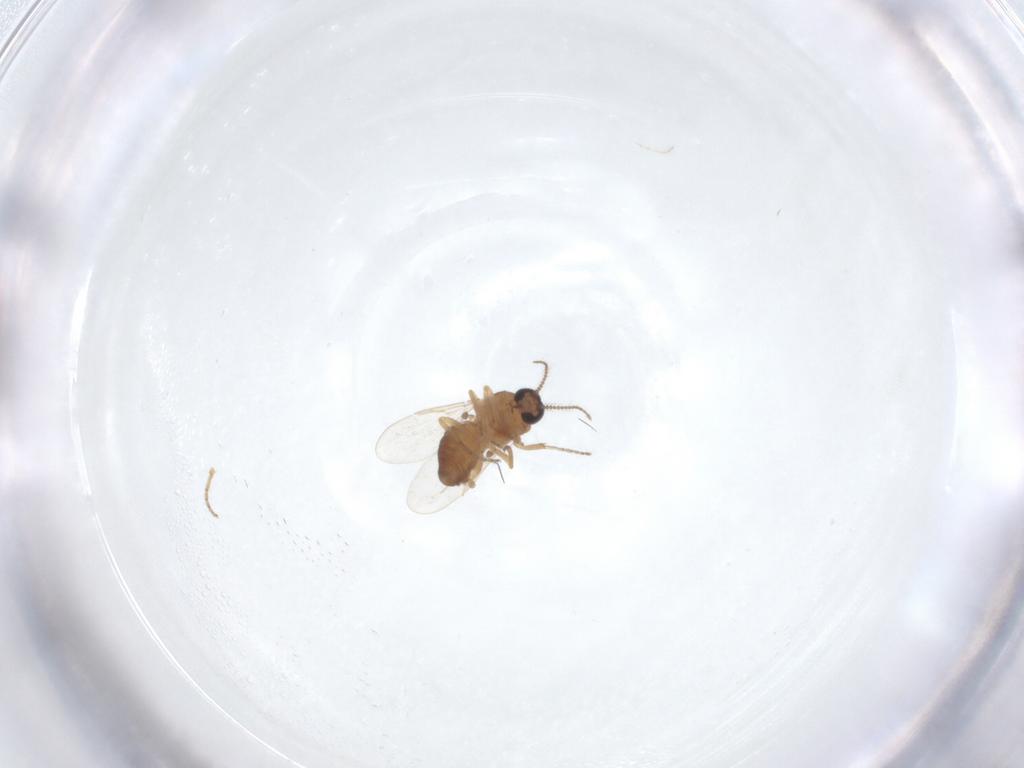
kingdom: Animalia
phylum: Arthropoda
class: Insecta
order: Diptera
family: Ceratopogonidae
